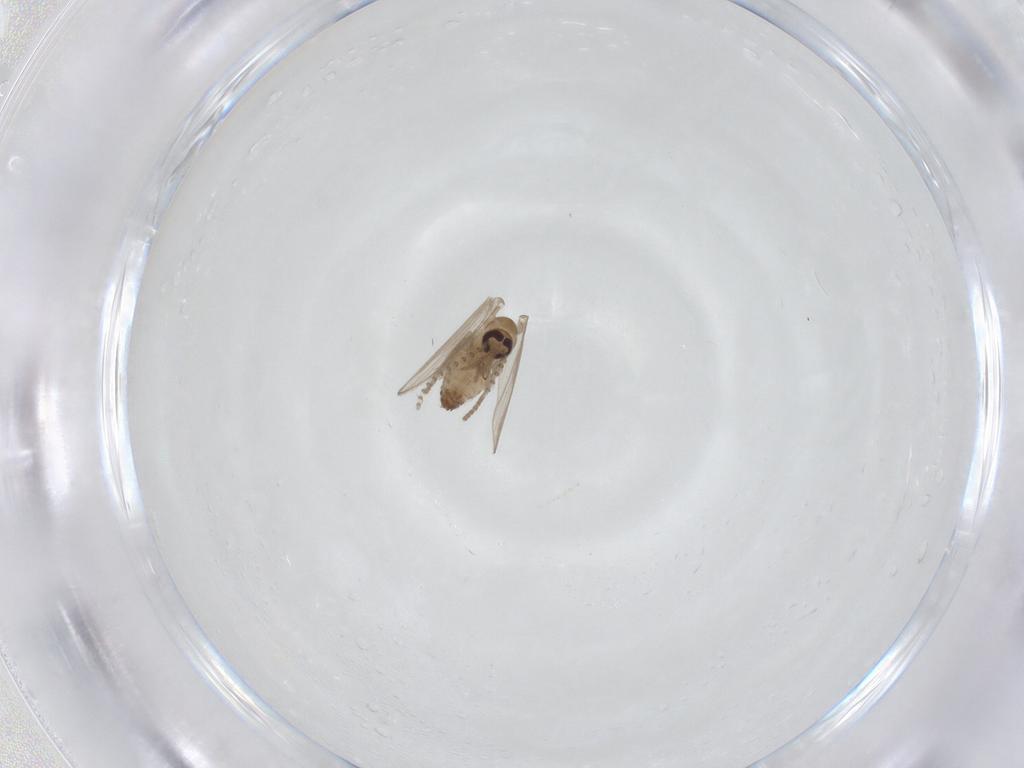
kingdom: Animalia
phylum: Arthropoda
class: Insecta
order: Diptera
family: Psychodidae
